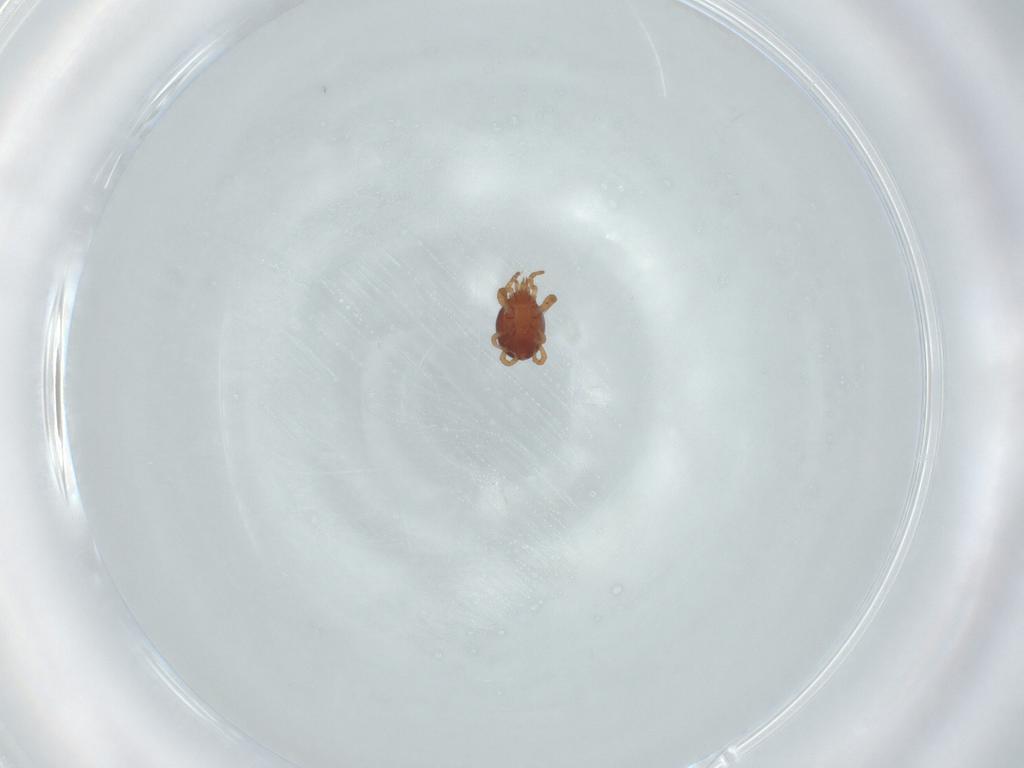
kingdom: Animalia
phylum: Arthropoda
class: Arachnida
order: Mesostigmata
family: Parasitidae
